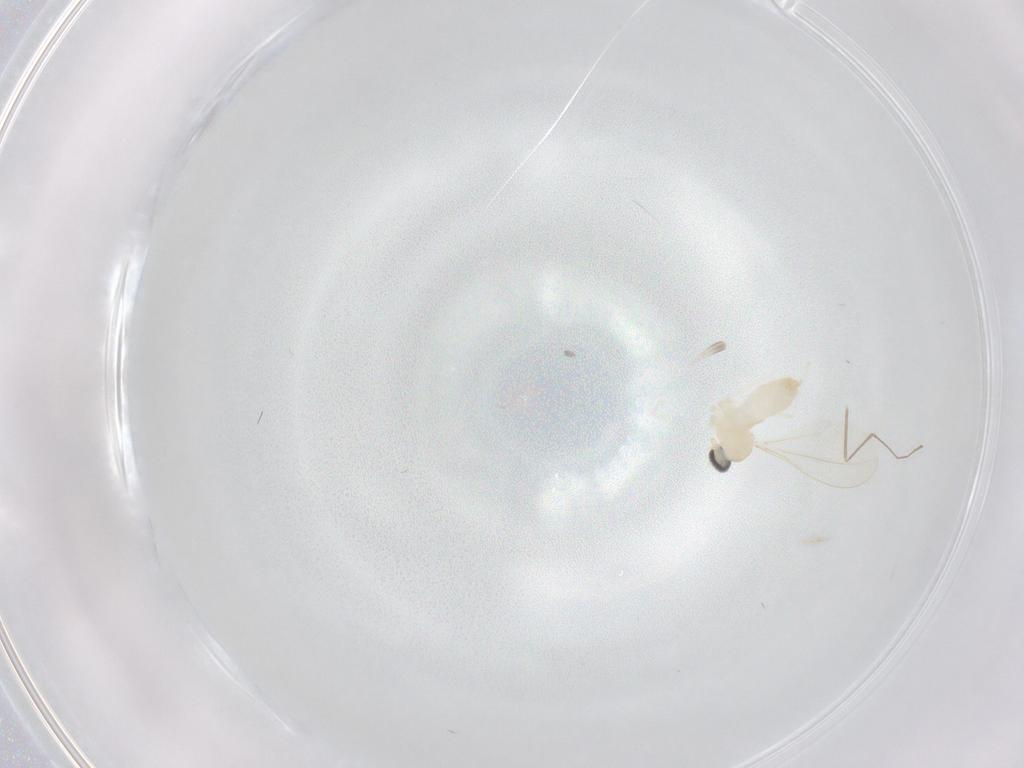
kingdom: Animalia
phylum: Arthropoda
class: Insecta
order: Diptera
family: Cecidomyiidae
